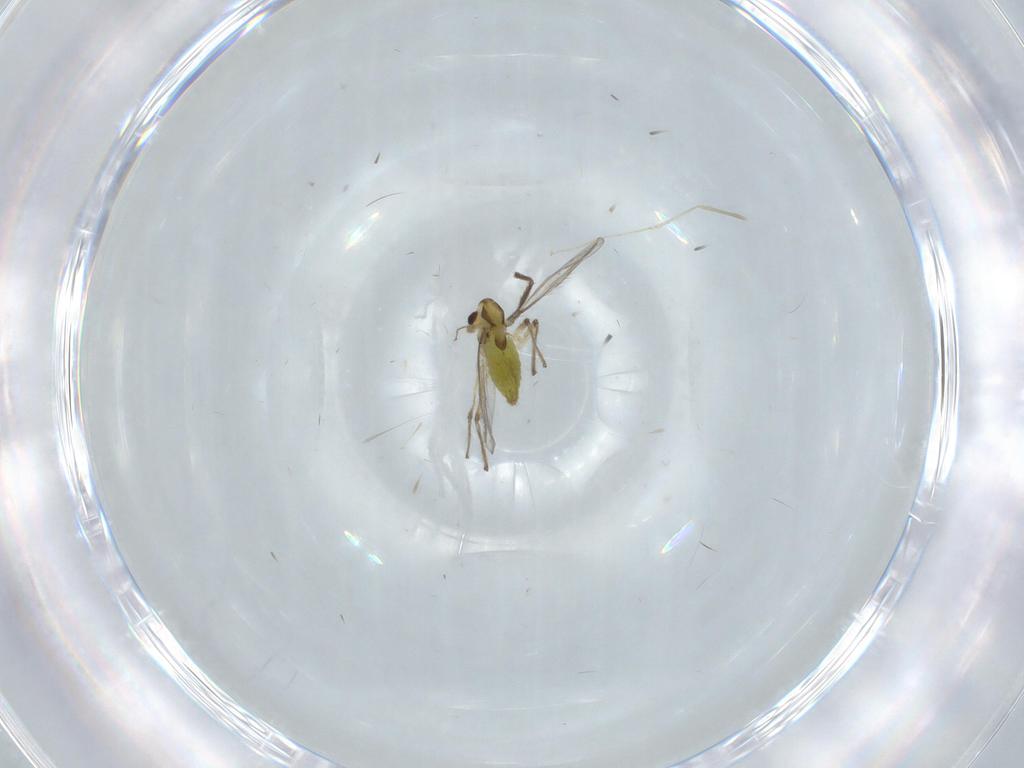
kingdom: Animalia
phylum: Arthropoda
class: Insecta
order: Diptera
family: Chironomidae
